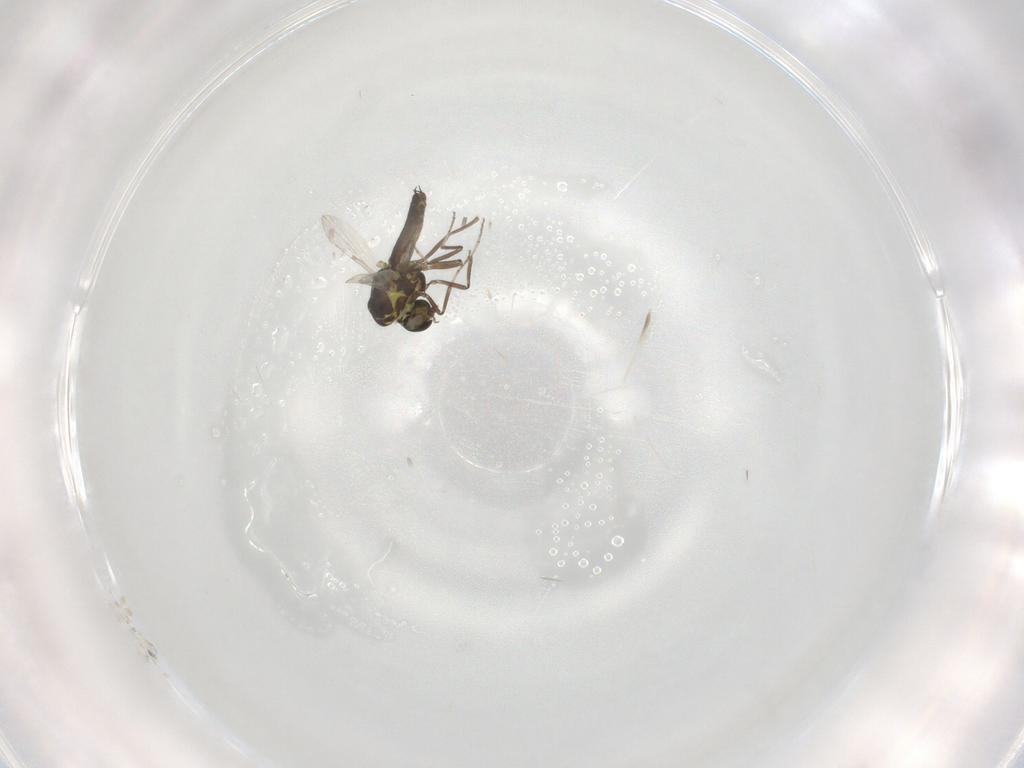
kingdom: Animalia
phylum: Arthropoda
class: Insecta
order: Diptera
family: Ceratopogonidae
